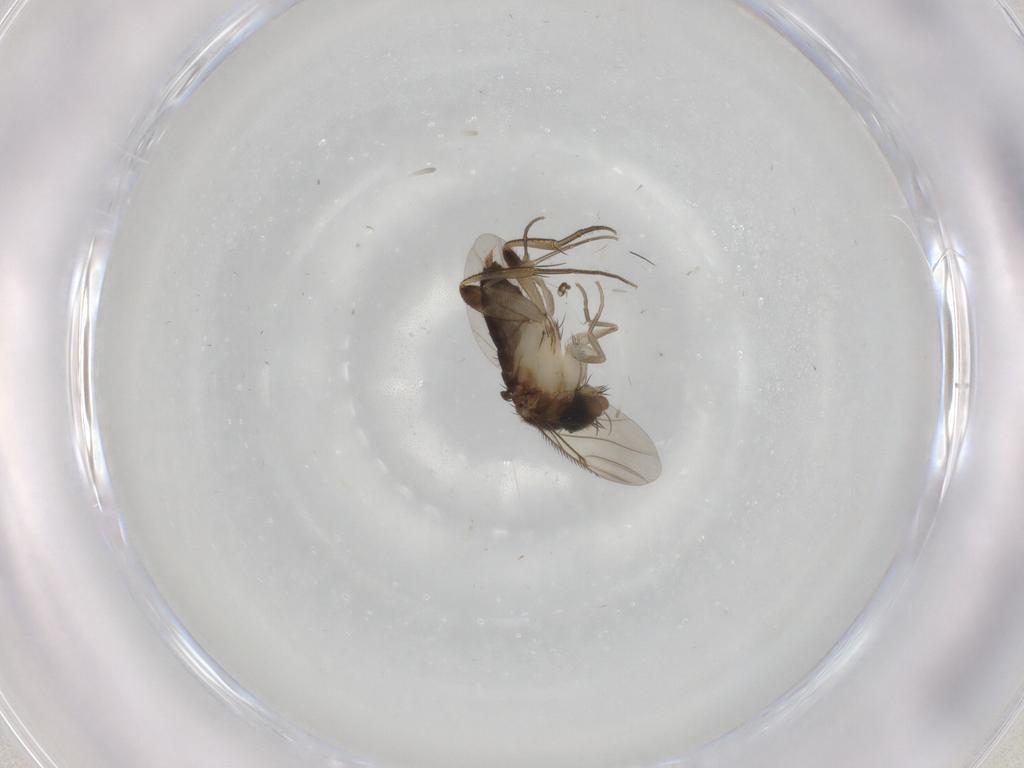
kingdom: Animalia
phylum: Arthropoda
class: Insecta
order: Diptera
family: Phoridae
